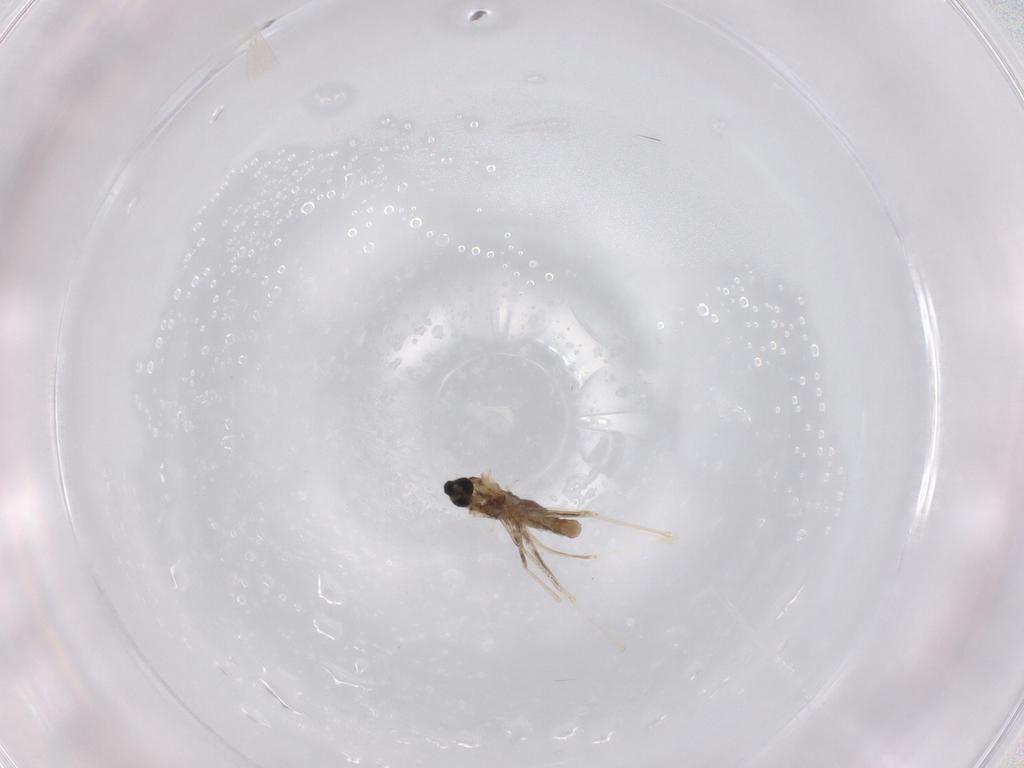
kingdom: Animalia
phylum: Arthropoda
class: Insecta
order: Diptera
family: Cecidomyiidae
